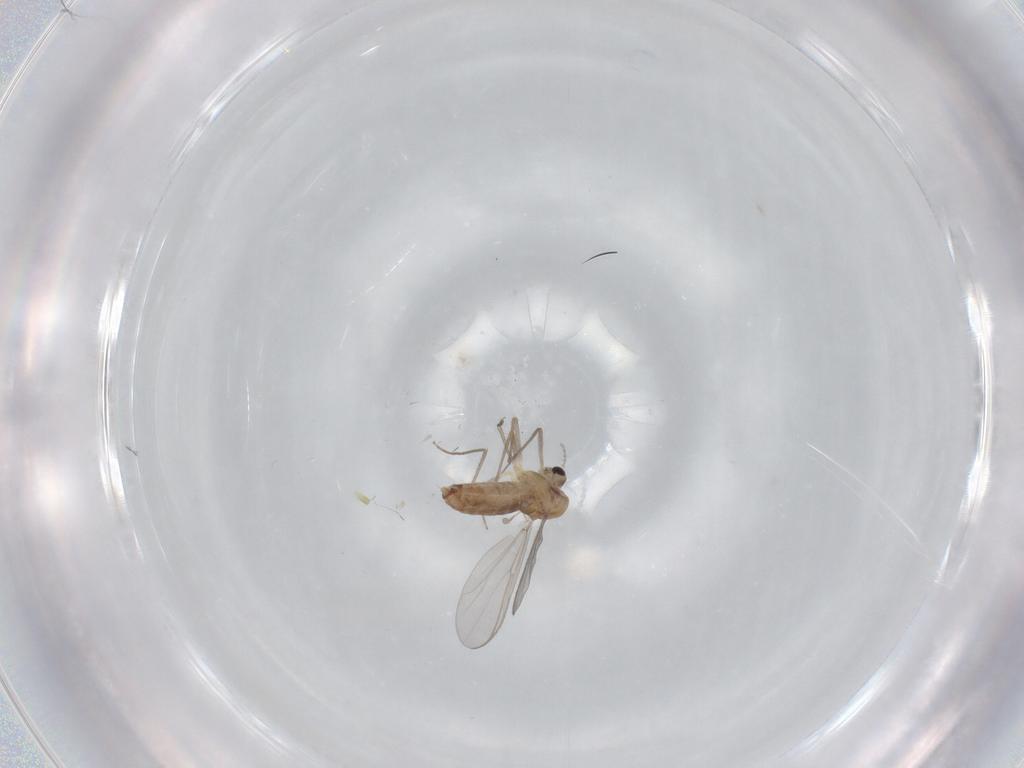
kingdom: Animalia
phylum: Arthropoda
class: Insecta
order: Diptera
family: Chironomidae
